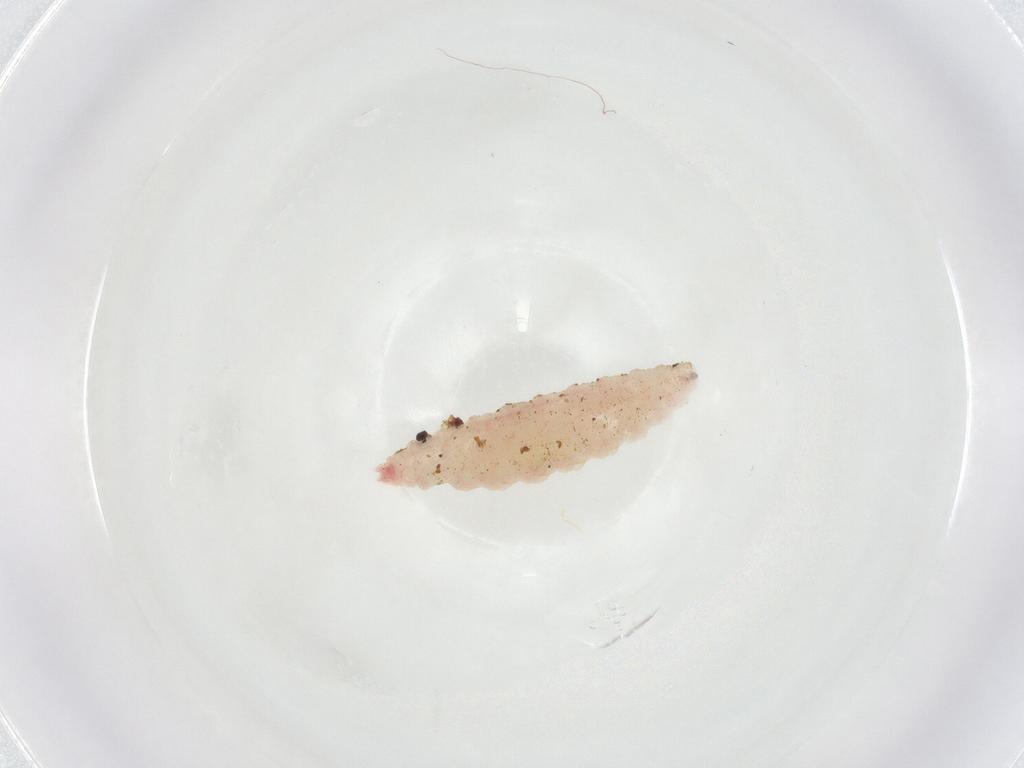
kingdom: Animalia
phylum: Arthropoda
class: Insecta
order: Diptera
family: Cecidomyiidae
